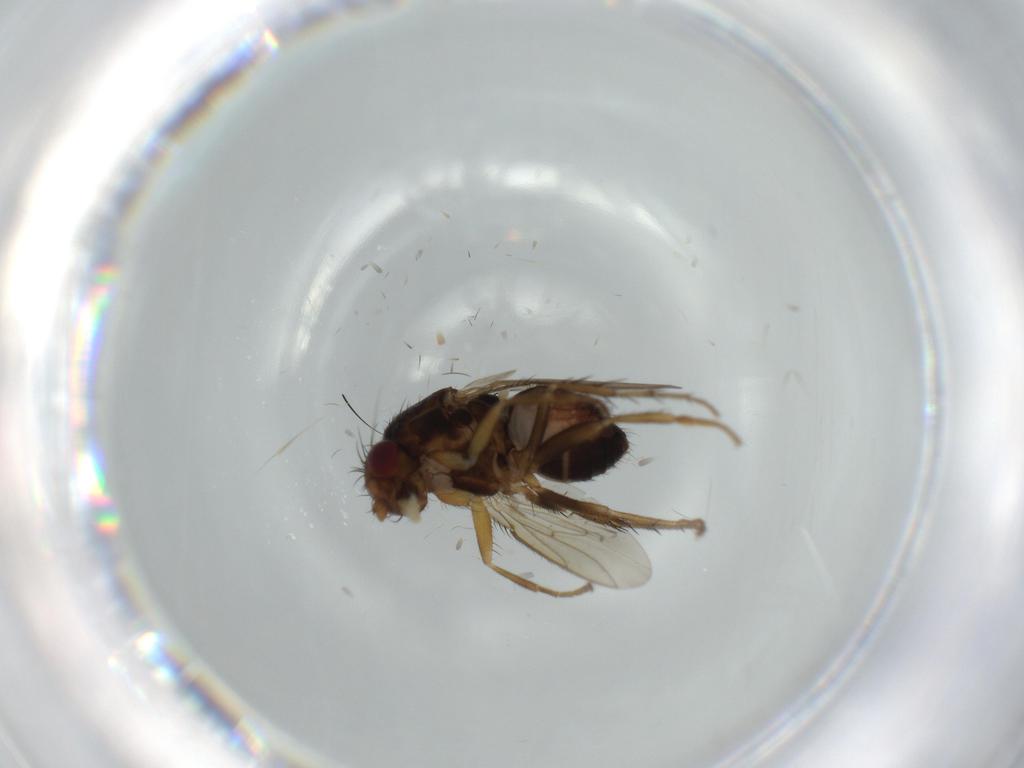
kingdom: Animalia
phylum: Arthropoda
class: Insecta
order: Diptera
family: Sphaeroceridae
